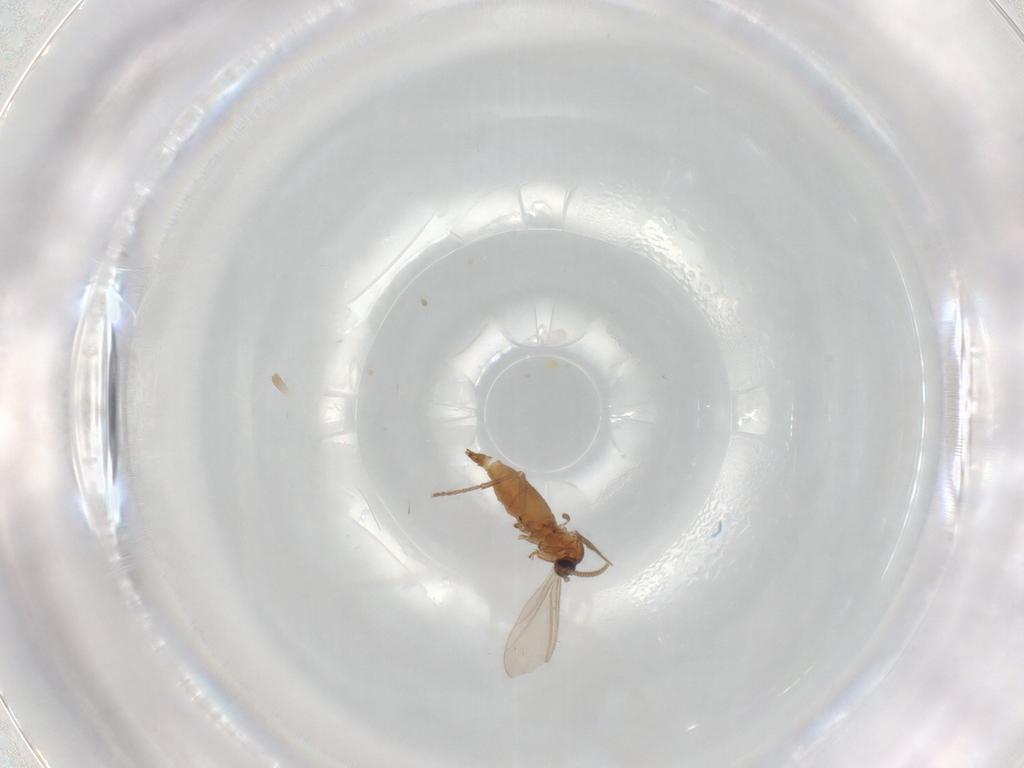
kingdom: Animalia
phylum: Arthropoda
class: Insecta
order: Diptera
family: Sciaridae
